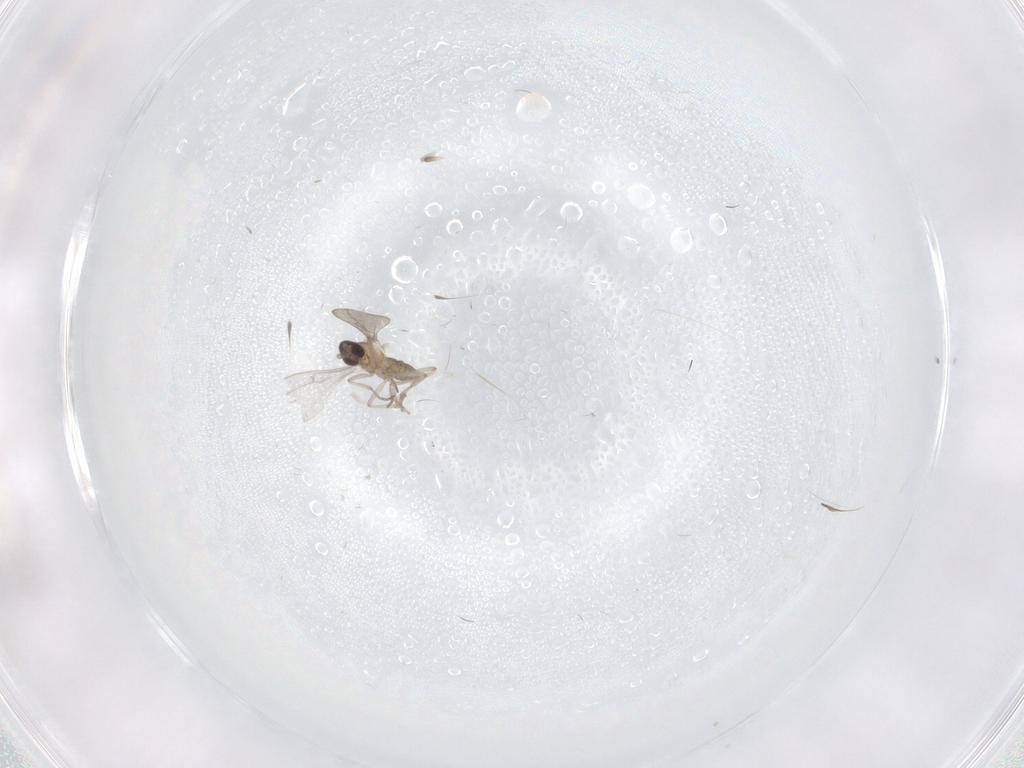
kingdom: Animalia
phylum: Arthropoda
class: Insecta
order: Diptera
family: Cecidomyiidae
